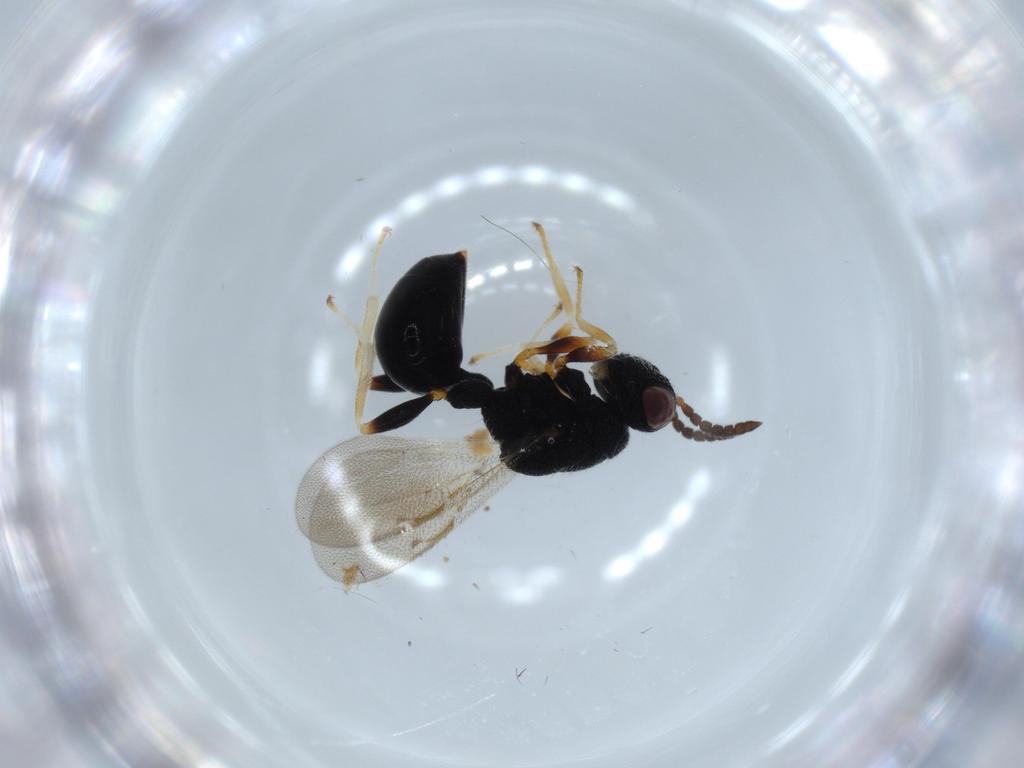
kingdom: Animalia
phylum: Arthropoda
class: Insecta
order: Hymenoptera
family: Bethylidae
